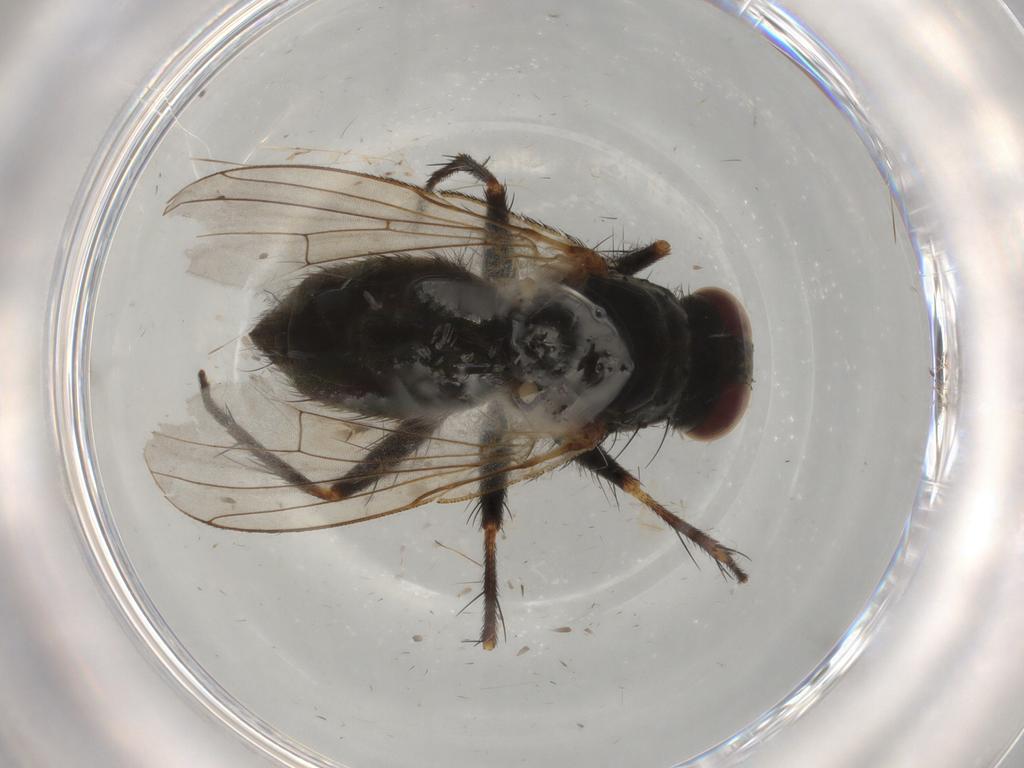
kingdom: Animalia
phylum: Arthropoda
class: Insecta
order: Diptera
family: Muscidae
